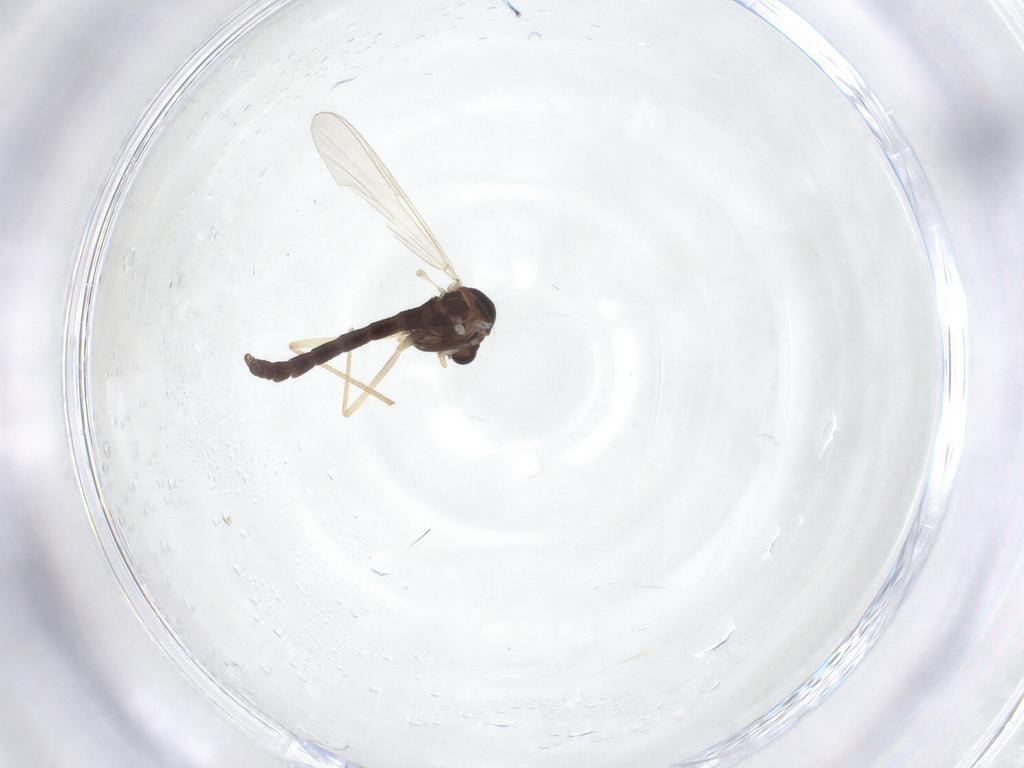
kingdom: Animalia
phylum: Arthropoda
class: Insecta
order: Diptera
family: Chironomidae
